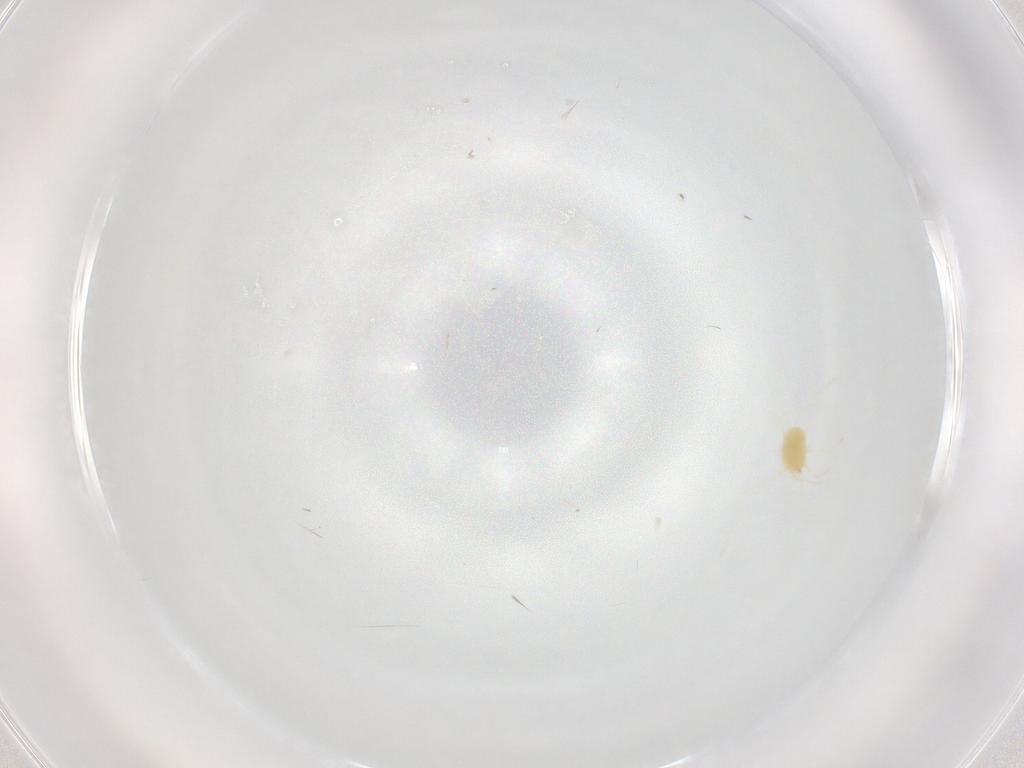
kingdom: Animalia
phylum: Arthropoda
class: Arachnida
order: Trombidiformes
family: Tetranychidae
